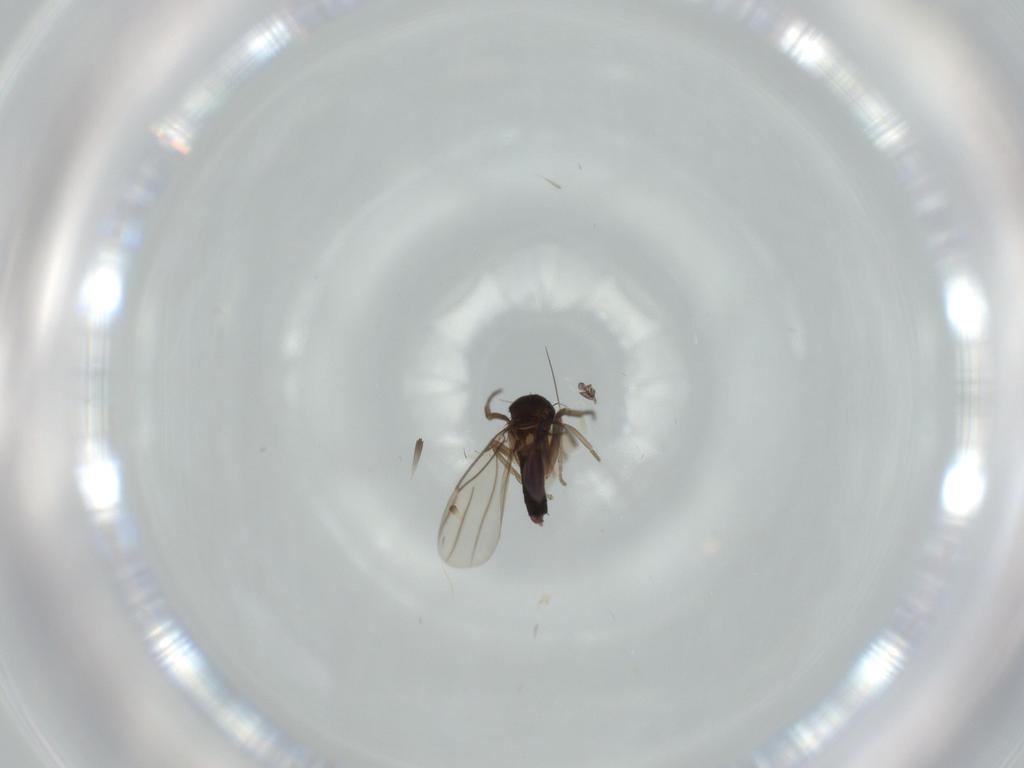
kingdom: Animalia
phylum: Arthropoda
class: Insecta
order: Diptera
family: Phoridae
